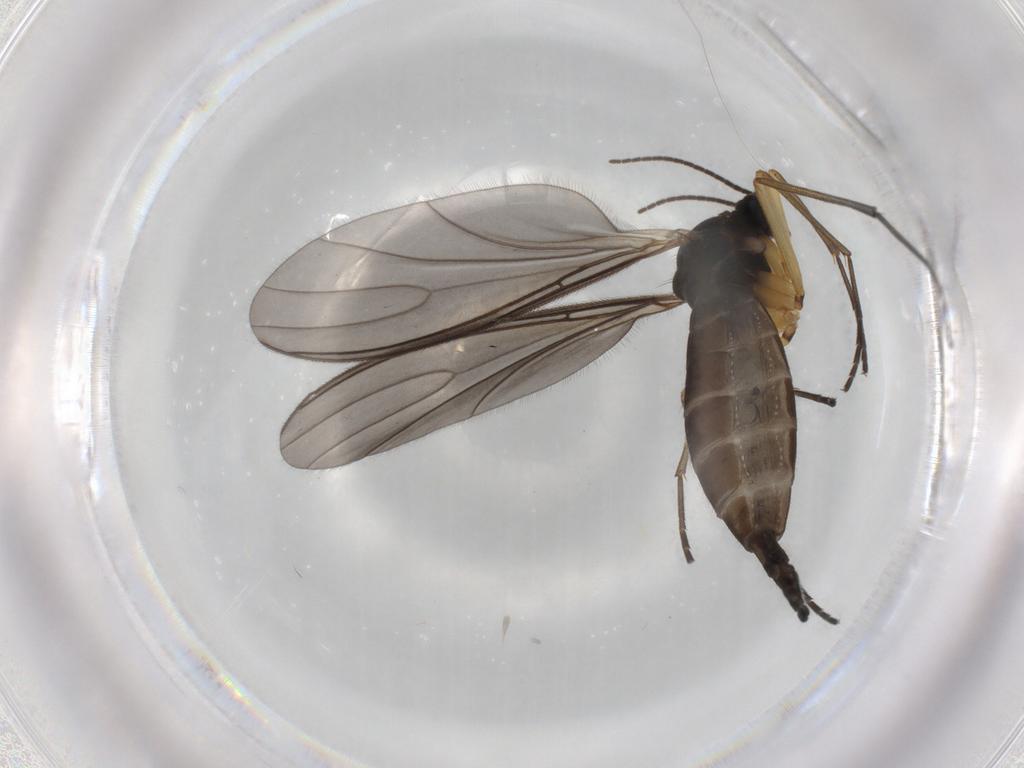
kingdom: Animalia
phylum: Arthropoda
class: Insecta
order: Diptera
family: Sciaridae
